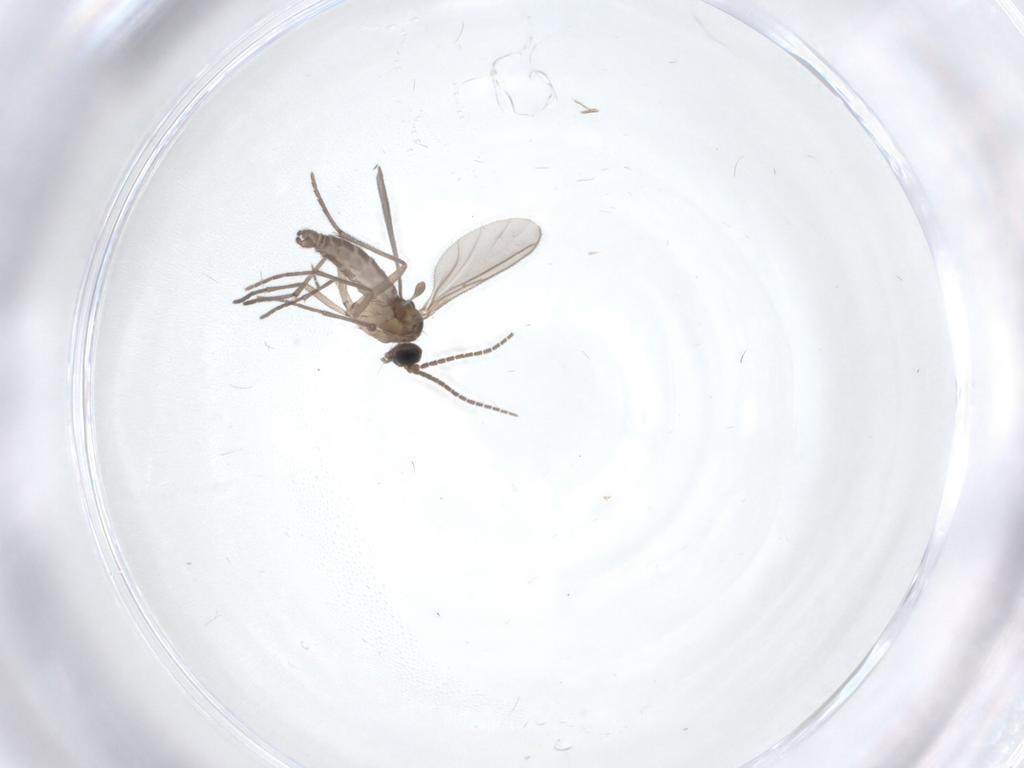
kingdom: Animalia
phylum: Arthropoda
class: Insecta
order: Diptera
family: Sciaridae
